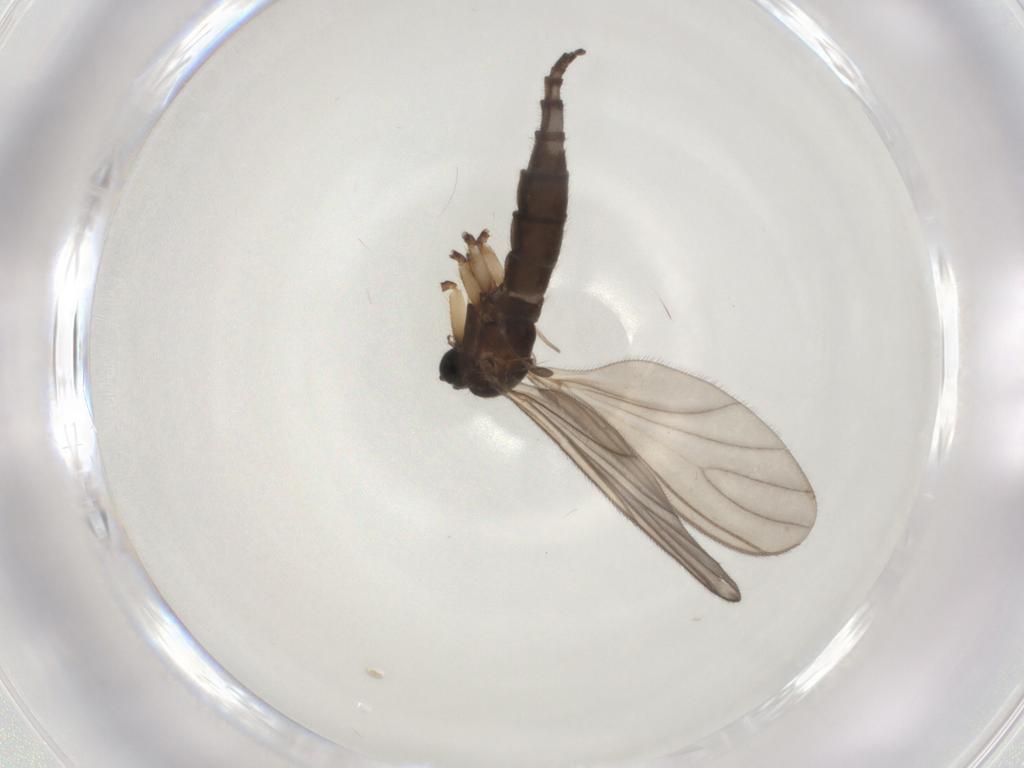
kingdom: Animalia
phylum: Arthropoda
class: Insecta
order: Diptera
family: Sciaridae
